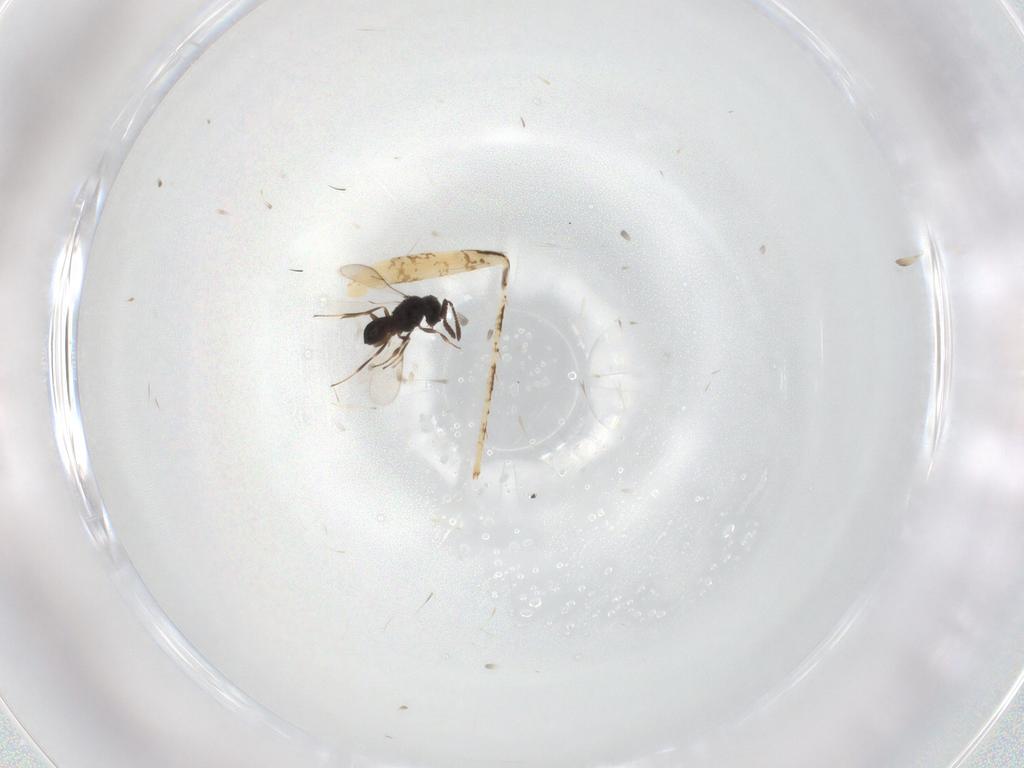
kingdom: Animalia
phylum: Arthropoda
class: Insecta
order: Hymenoptera
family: Scelionidae
